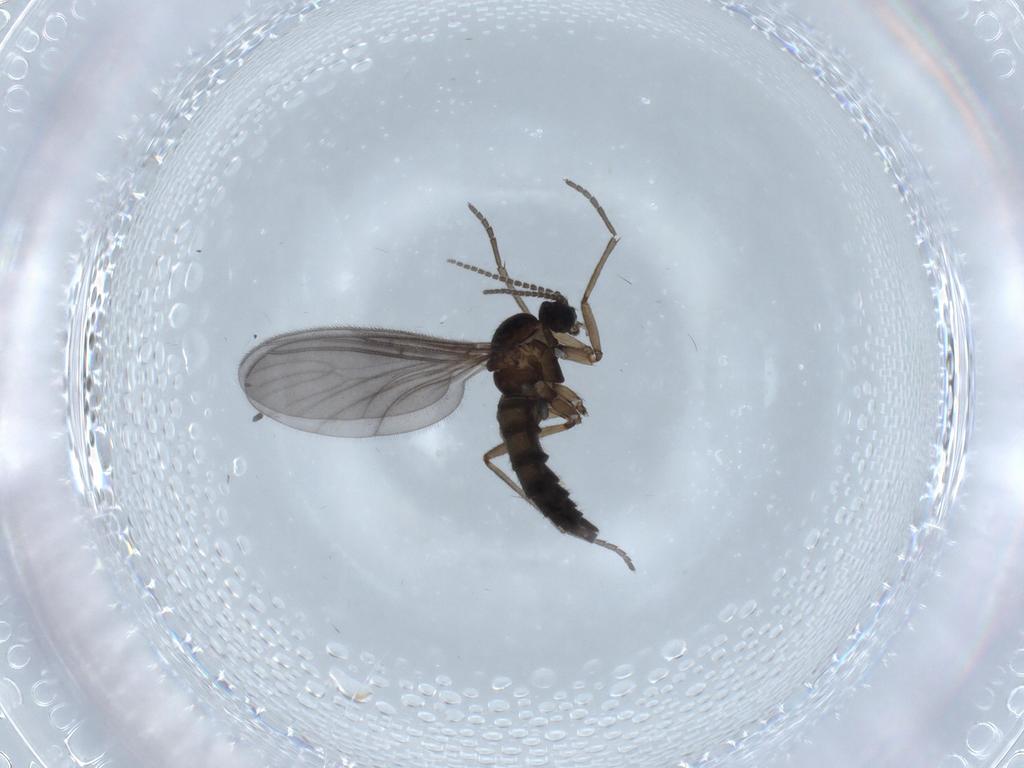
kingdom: Animalia
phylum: Arthropoda
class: Insecta
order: Diptera
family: Sciaridae
